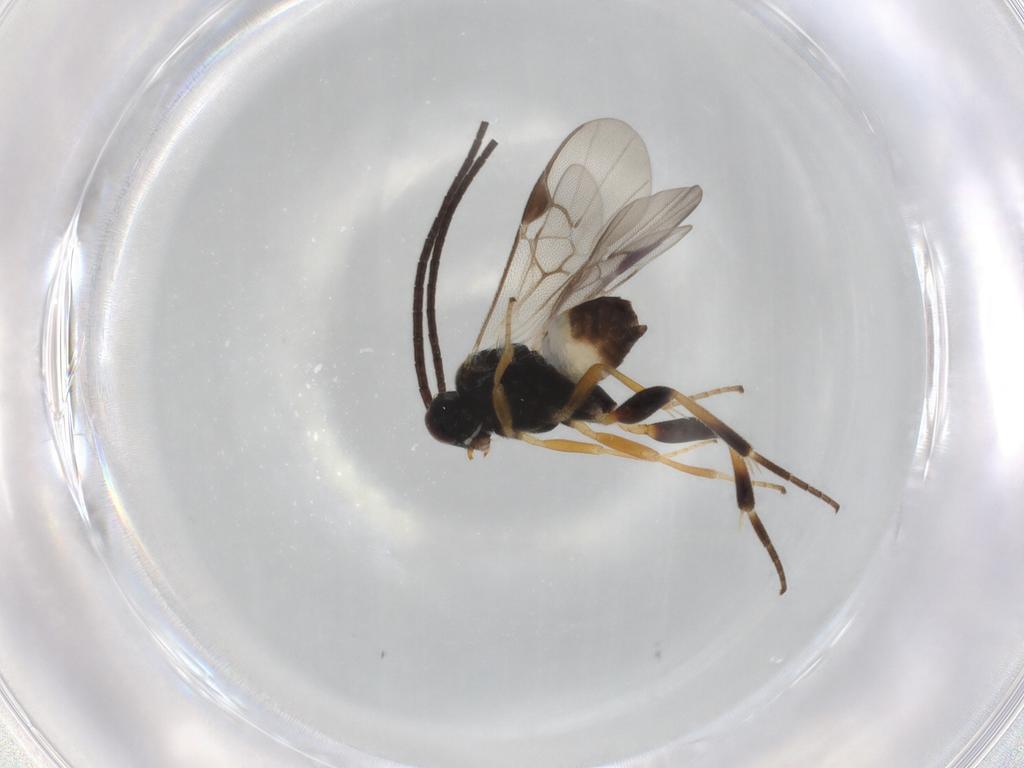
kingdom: Animalia
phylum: Arthropoda
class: Insecta
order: Hymenoptera
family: Braconidae
